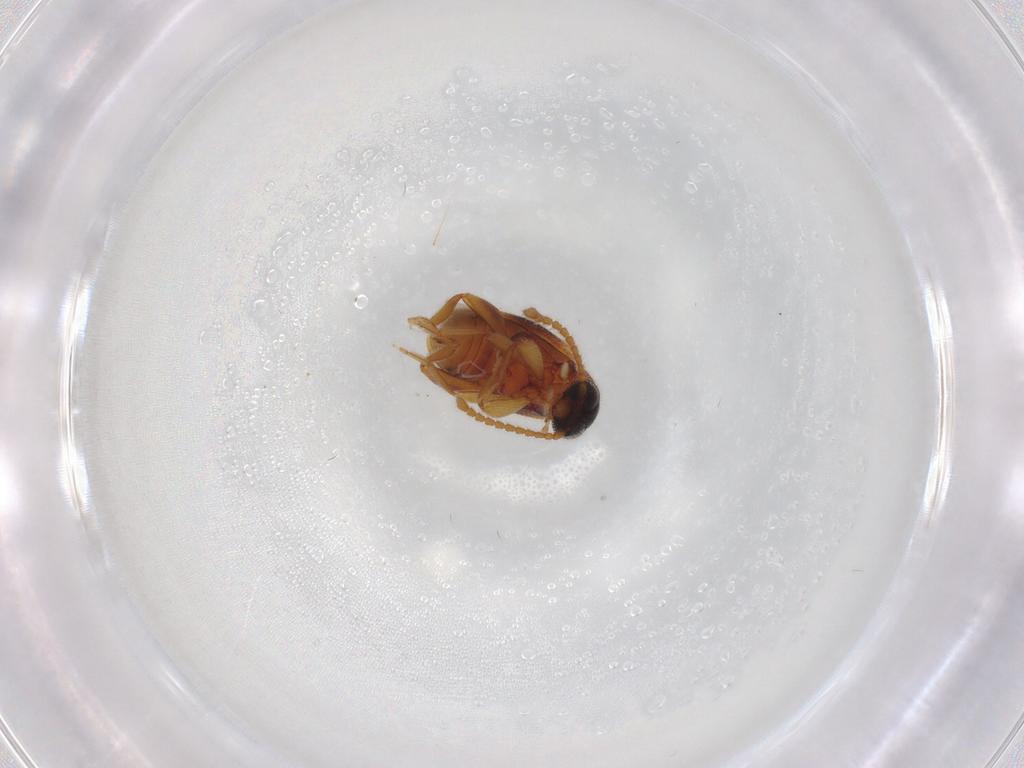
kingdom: Animalia
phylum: Arthropoda
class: Insecta
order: Coleoptera
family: Aderidae
